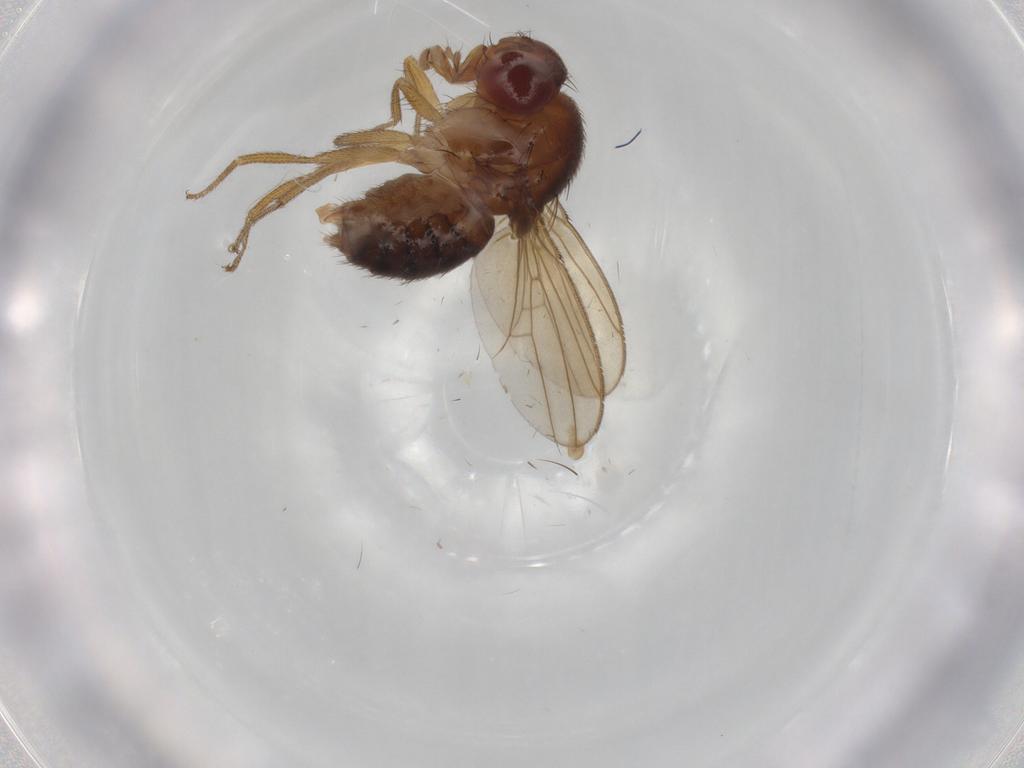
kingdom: Animalia
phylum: Arthropoda
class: Insecta
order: Diptera
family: Drosophilidae
